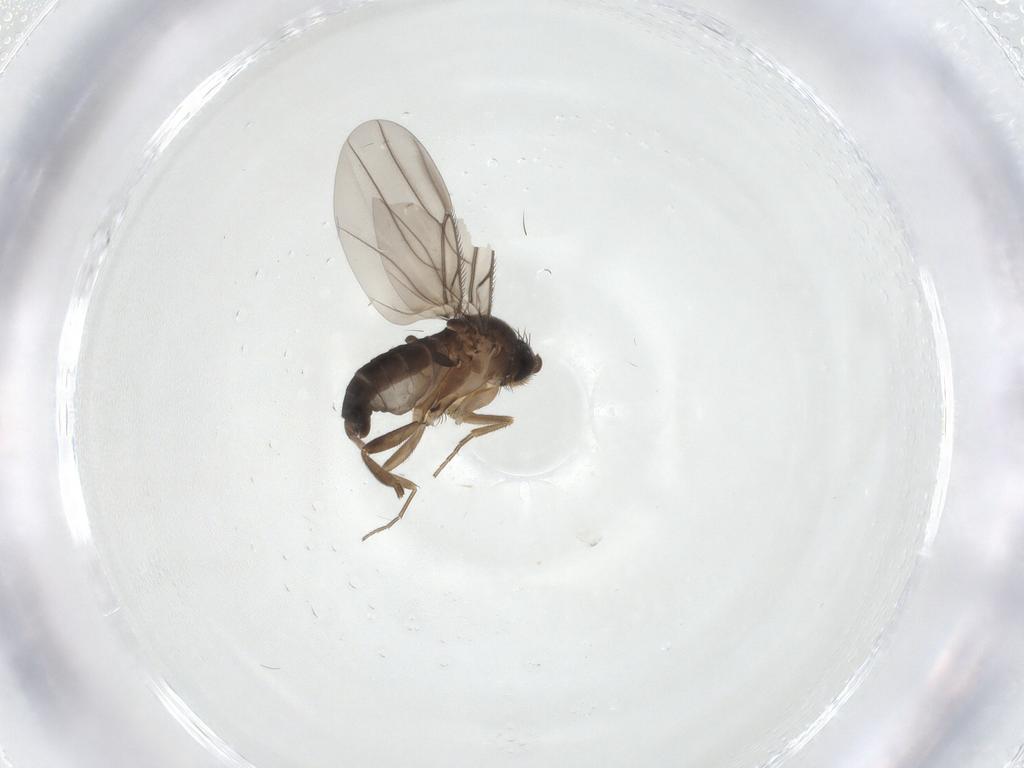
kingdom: Animalia
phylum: Arthropoda
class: Insecta
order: Diptera
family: Phoridae
